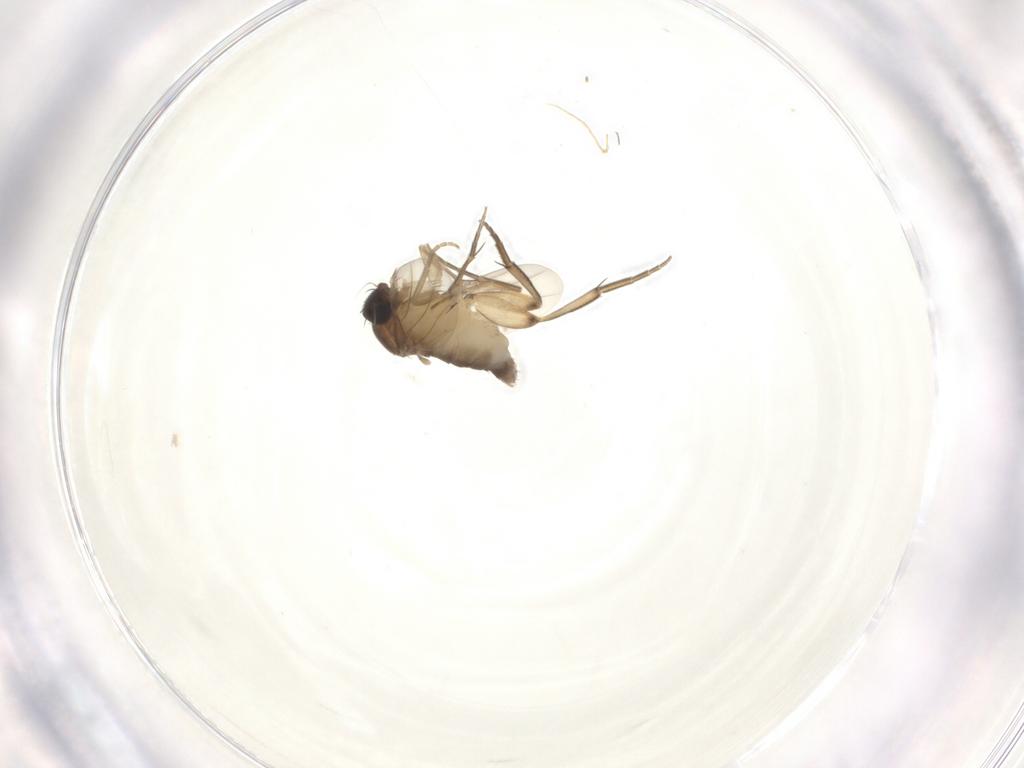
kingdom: Animalia
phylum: Arthropoda
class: Insecta
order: Diptera
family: Phoridae
